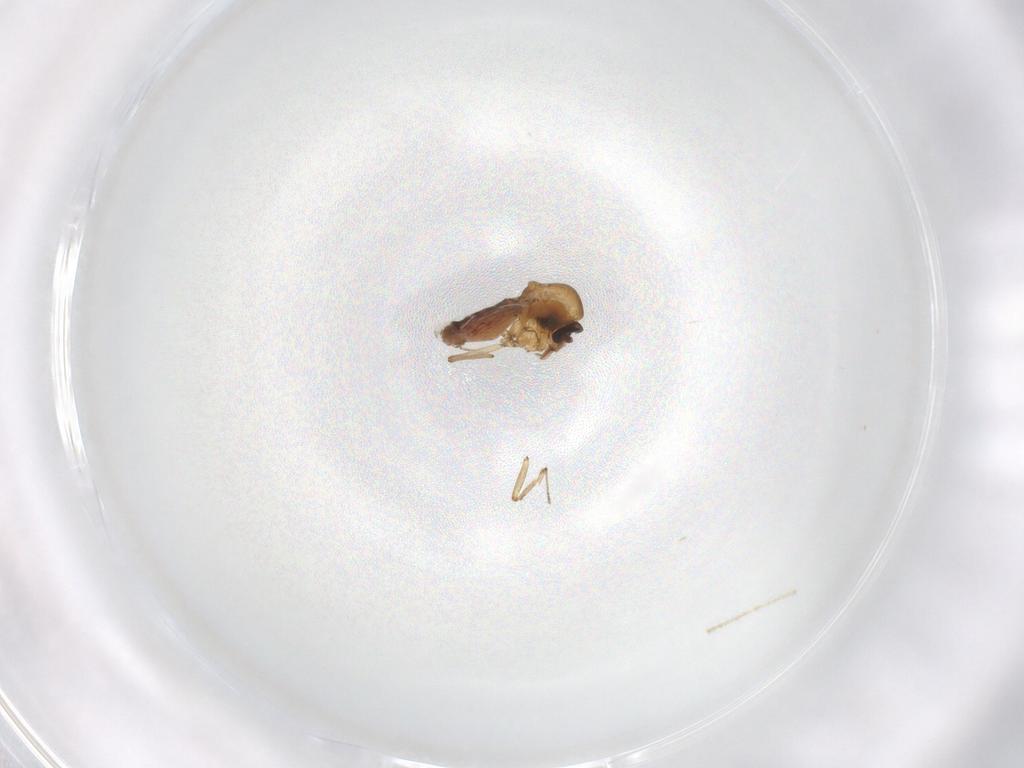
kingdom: Animalia
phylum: Arthropoda
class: Insecta
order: Diptera
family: Ceratopogonidae
